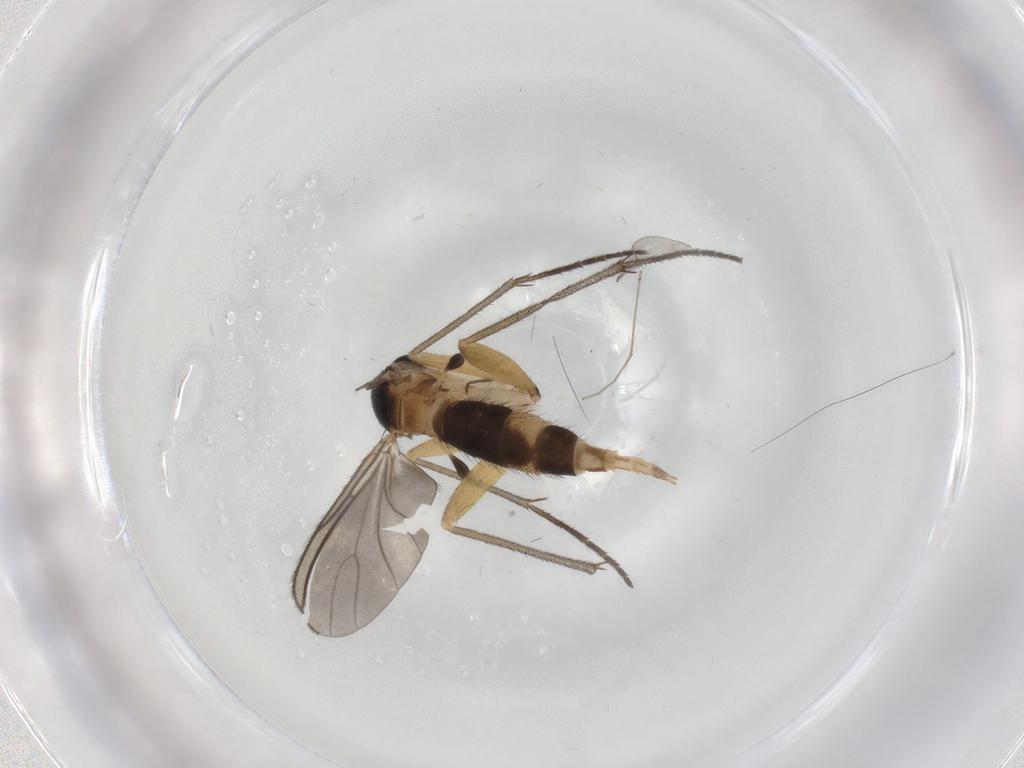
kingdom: Animalia
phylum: Arthropoda
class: Insecta
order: Diptera
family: Sciaridae
